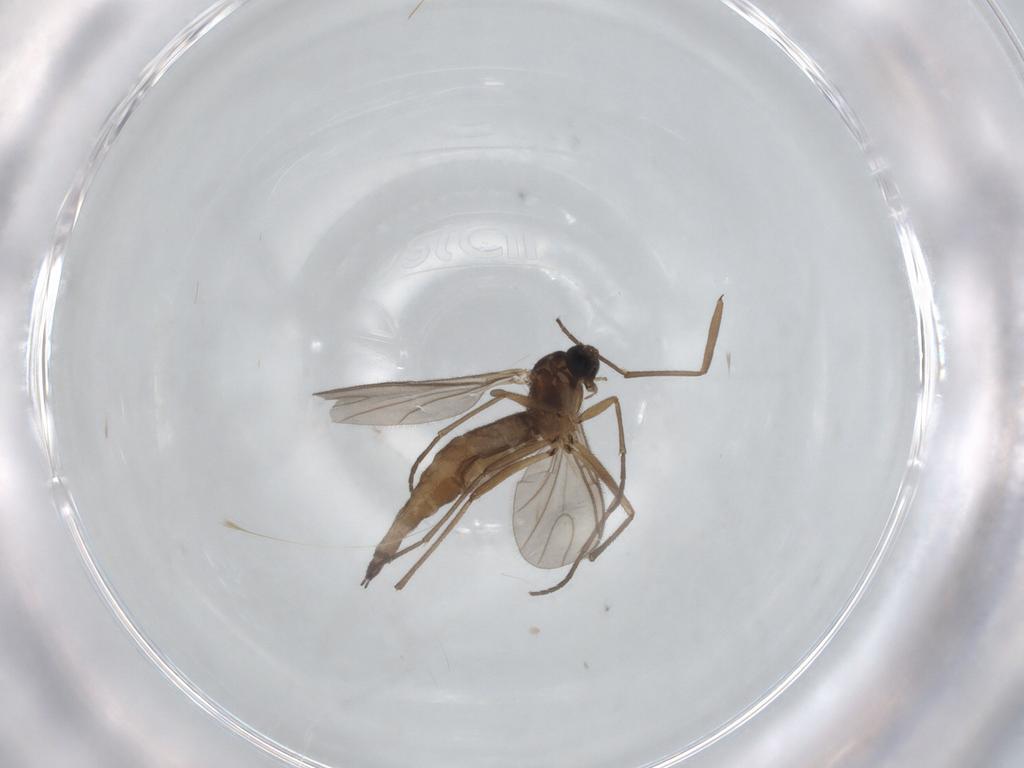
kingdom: Animalia
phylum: Arthropoda
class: Insecta
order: Diptera
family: Sciaridae
